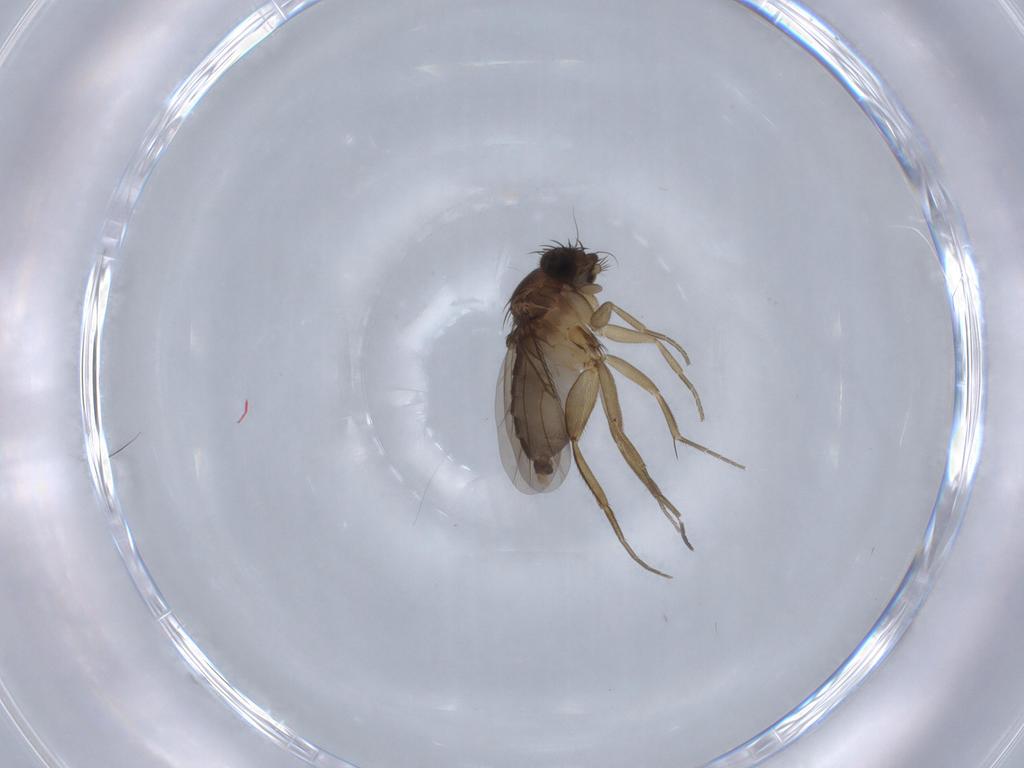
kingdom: Animalia
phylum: Arthropoda
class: Insecta
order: Diptera
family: Phoridae
